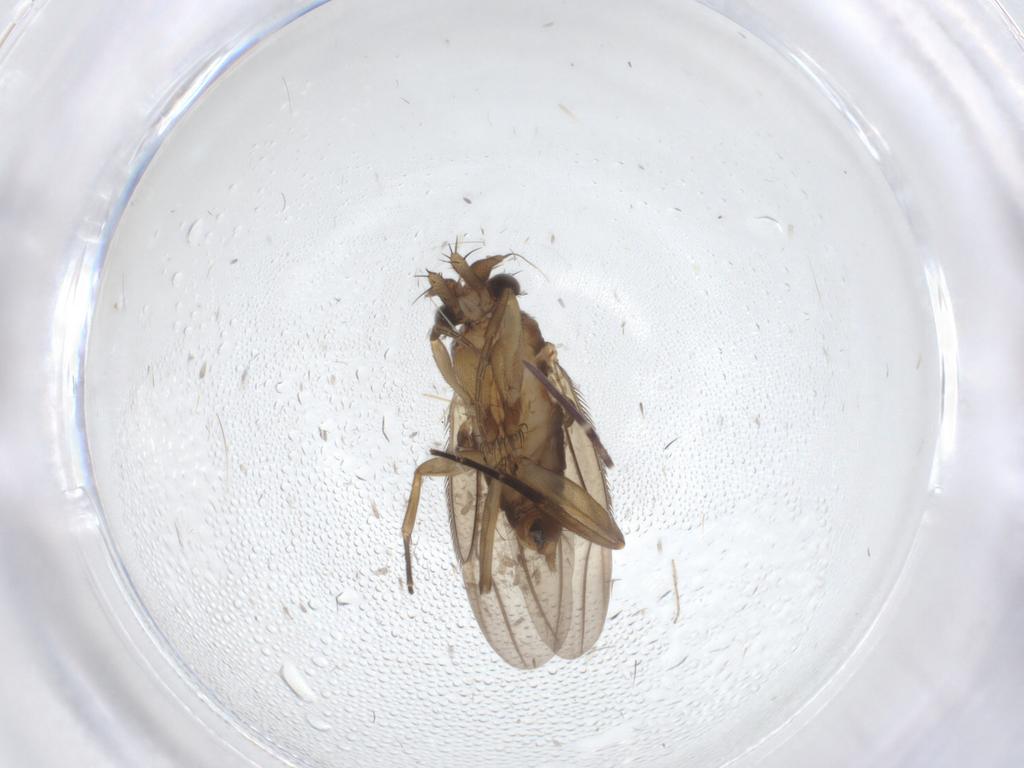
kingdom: Animalia
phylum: Arthropoda
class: Insecta
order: Diptera
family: Phoridae
